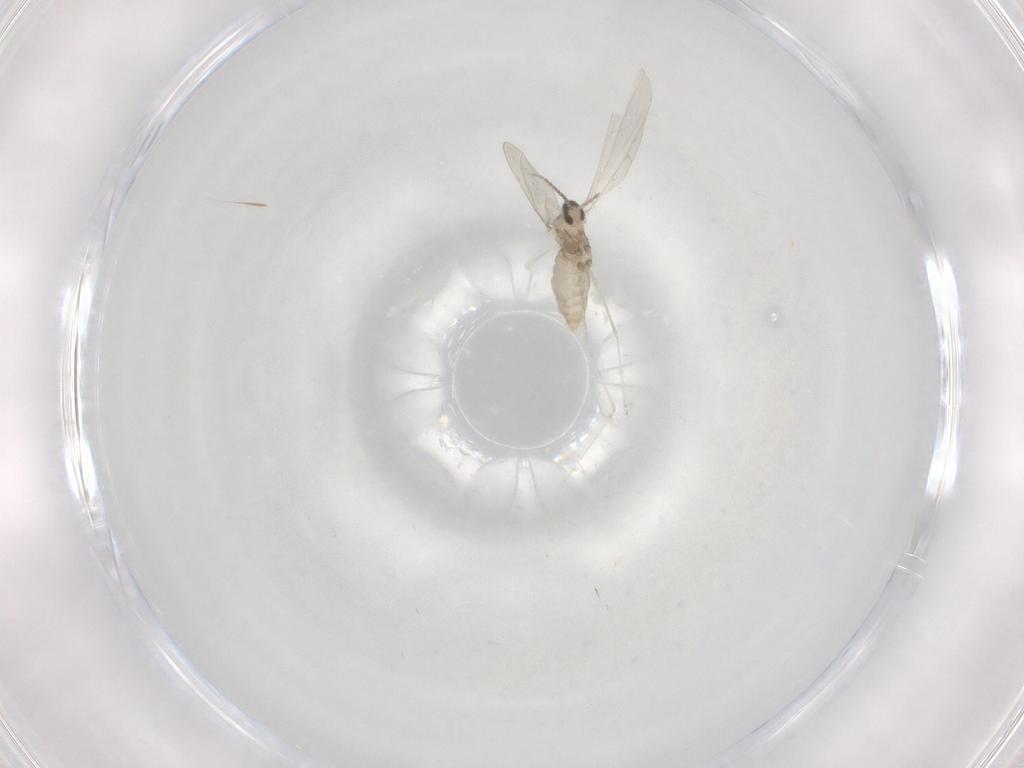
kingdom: Animalia
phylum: Arthropoda
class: Insecta
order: Diptera
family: Cecidomyiidae
